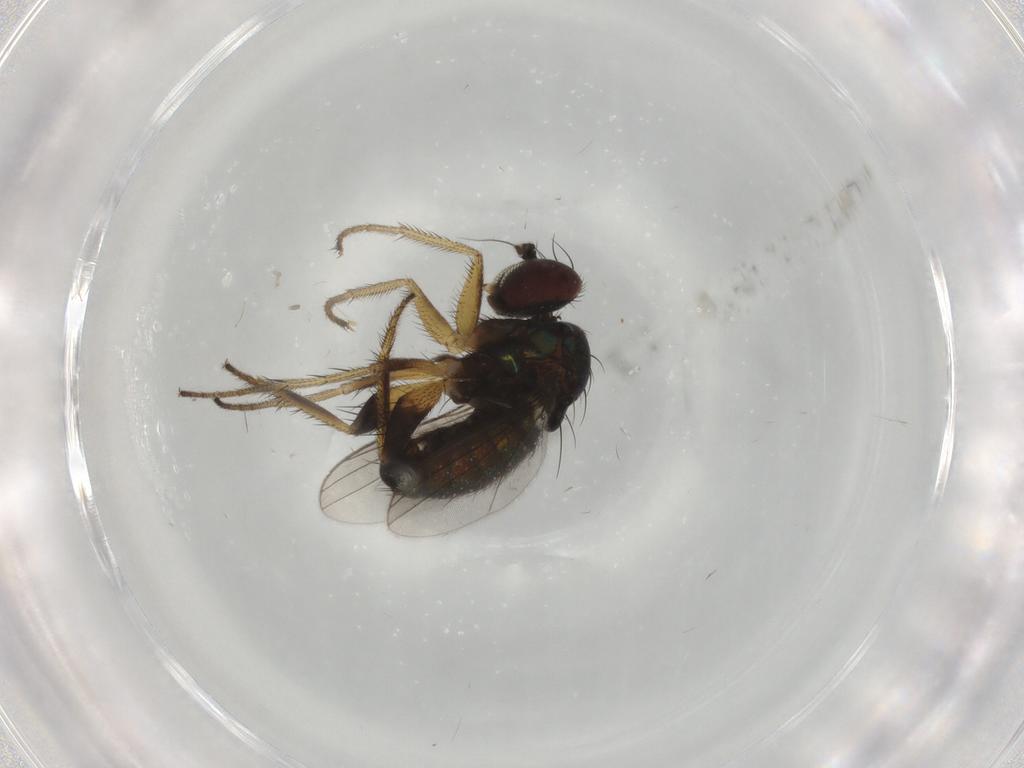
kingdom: Animalia
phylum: Arthropoda
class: Insecta
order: Diptera
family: Dolichopodidae
